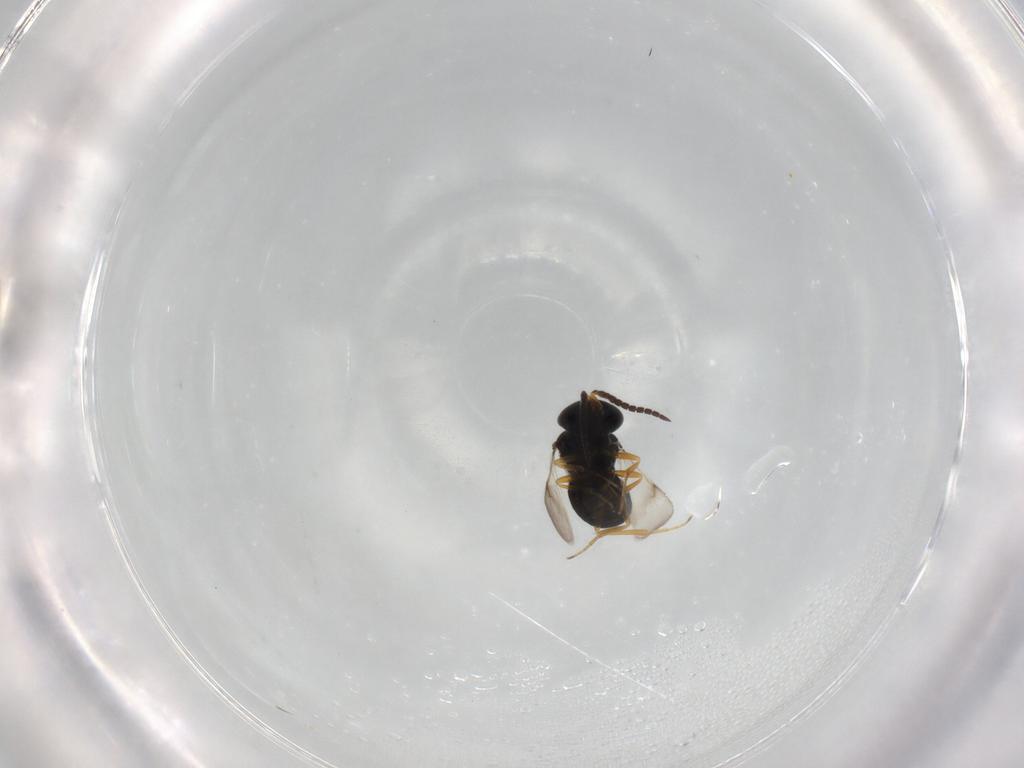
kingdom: Animalia
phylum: Arthropoda
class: Insecta
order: Hymenoptera
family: Scelionidae
